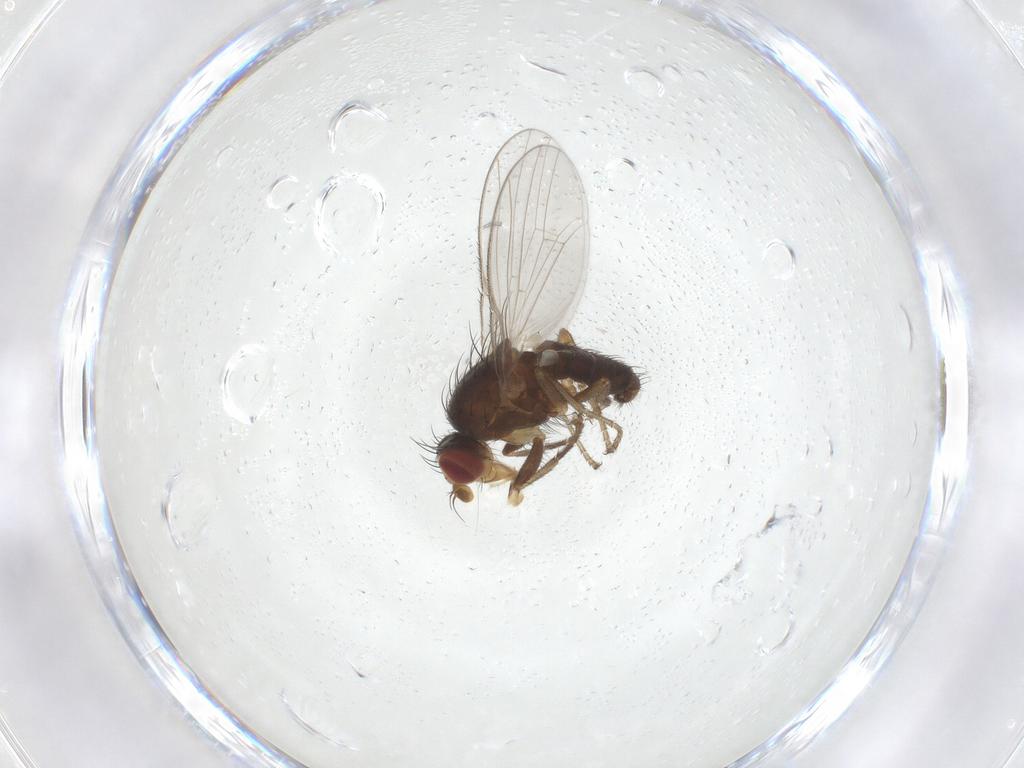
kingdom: Animalia
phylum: Arthropoda
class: Insecta
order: Diptera
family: Heleomyzidae
